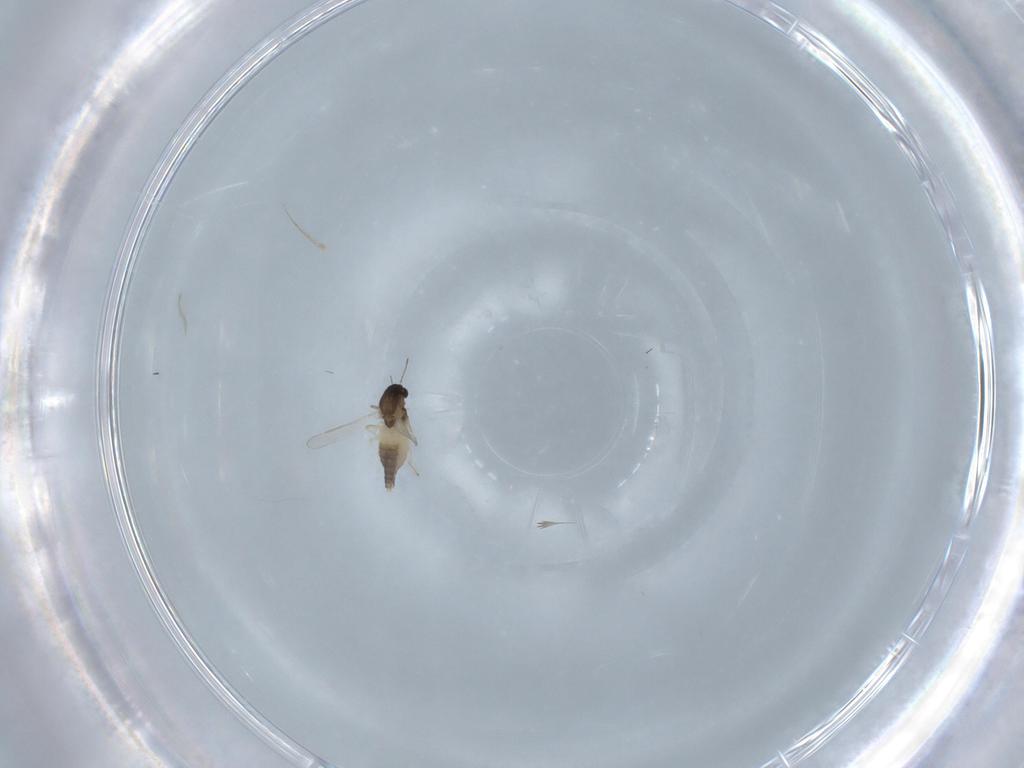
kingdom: Animalia
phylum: Arthropoda
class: Insecta
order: Diptera
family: Chironomidae
